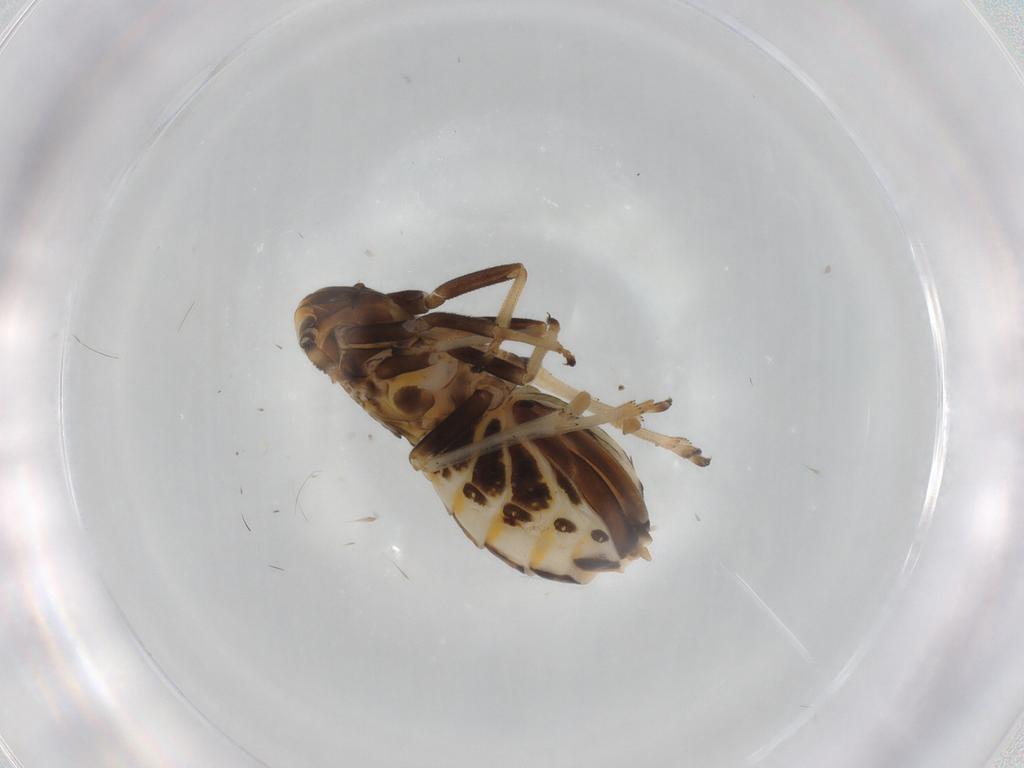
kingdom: Animalia
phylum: Arthropoda
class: Insecta
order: Hemiptera
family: Delphacidae
